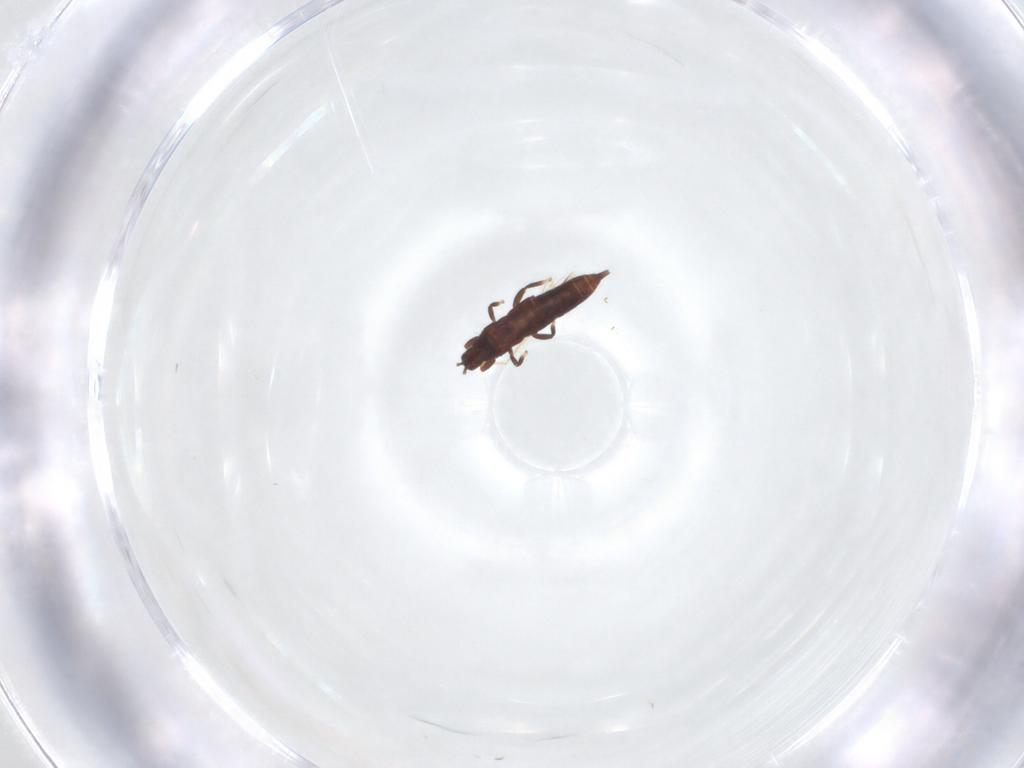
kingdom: Animalia
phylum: Arthropoda
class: Insecta
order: Thysanoptera
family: Phlaeothripidae
